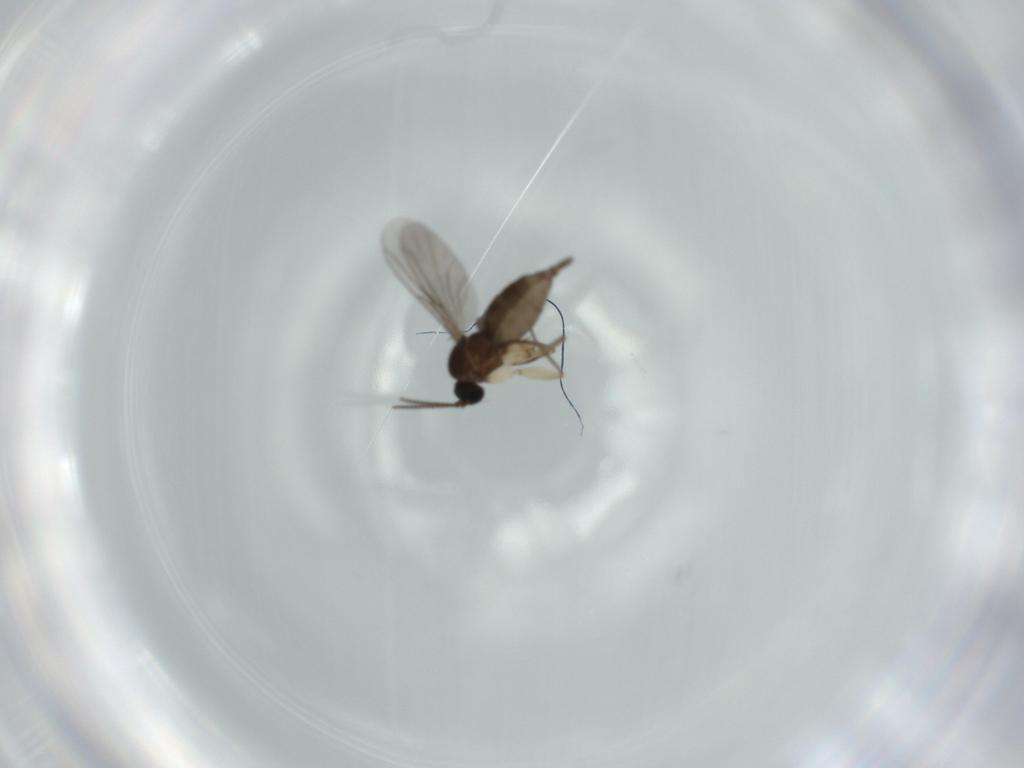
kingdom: Animalia
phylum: Arthropoda
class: Insecta
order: Diptera
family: Sciaridae
